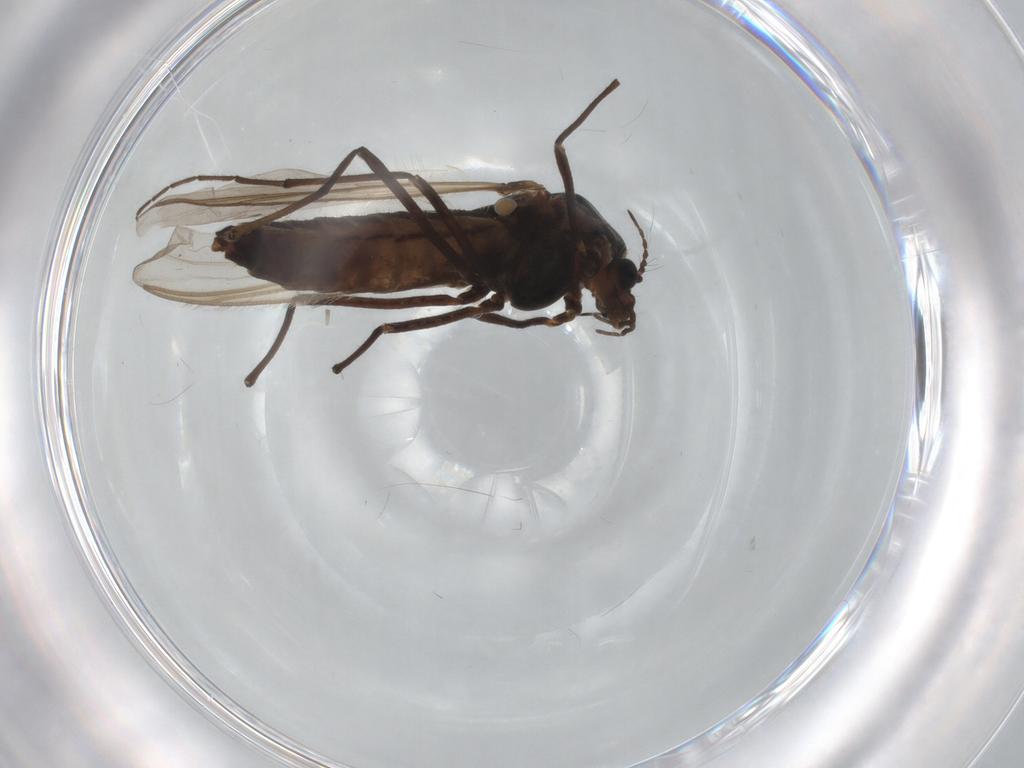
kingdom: Animalia
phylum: Arthropoda
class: Insecta
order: Diptera
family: Chironomidae
